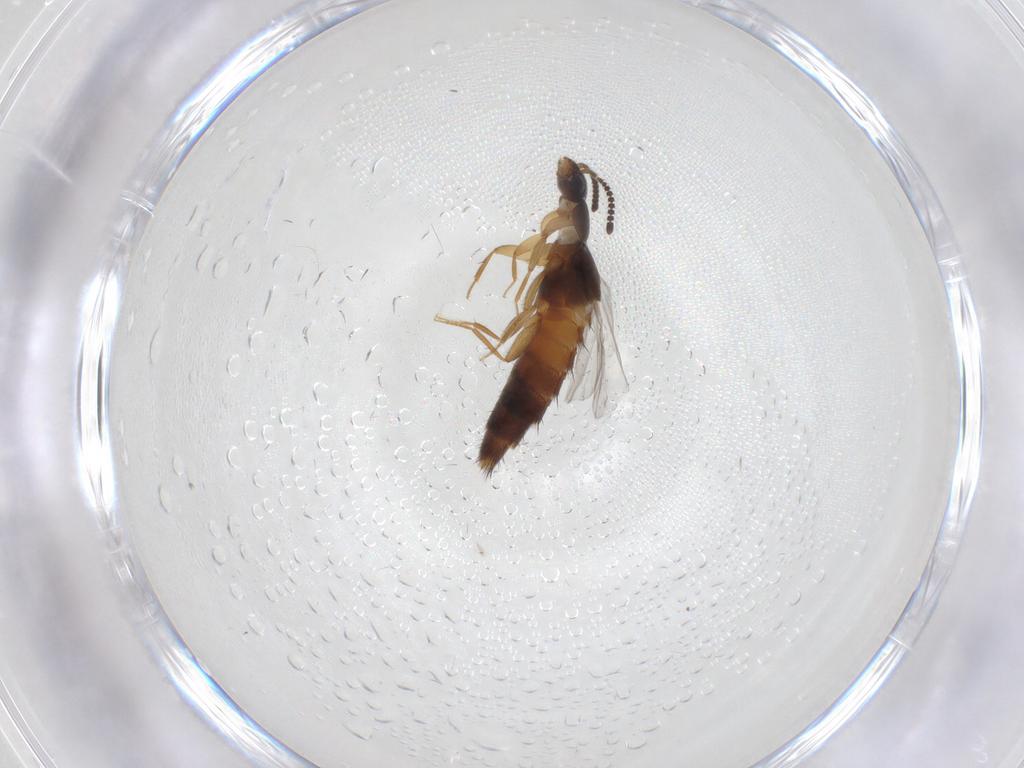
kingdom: Animalia
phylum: Arthropoda
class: Insecta
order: Coleoptera
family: Staphylinidae
